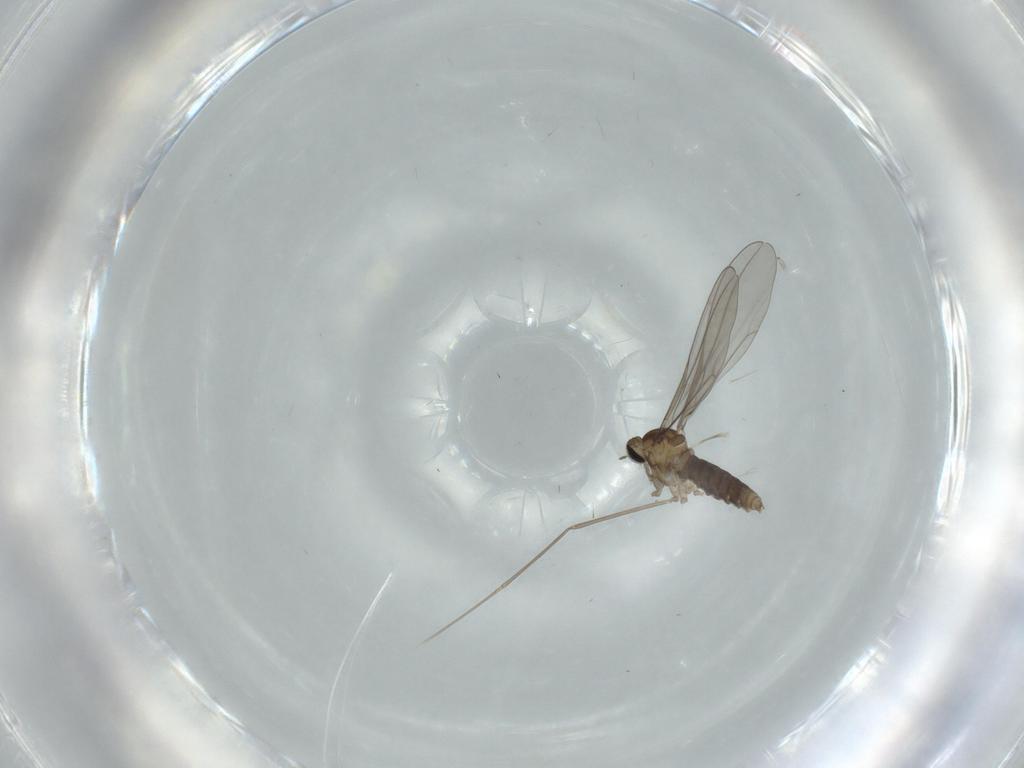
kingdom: Animalia
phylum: Arthropoda
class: Insecta
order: Diptera
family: Cecidomyiidae
